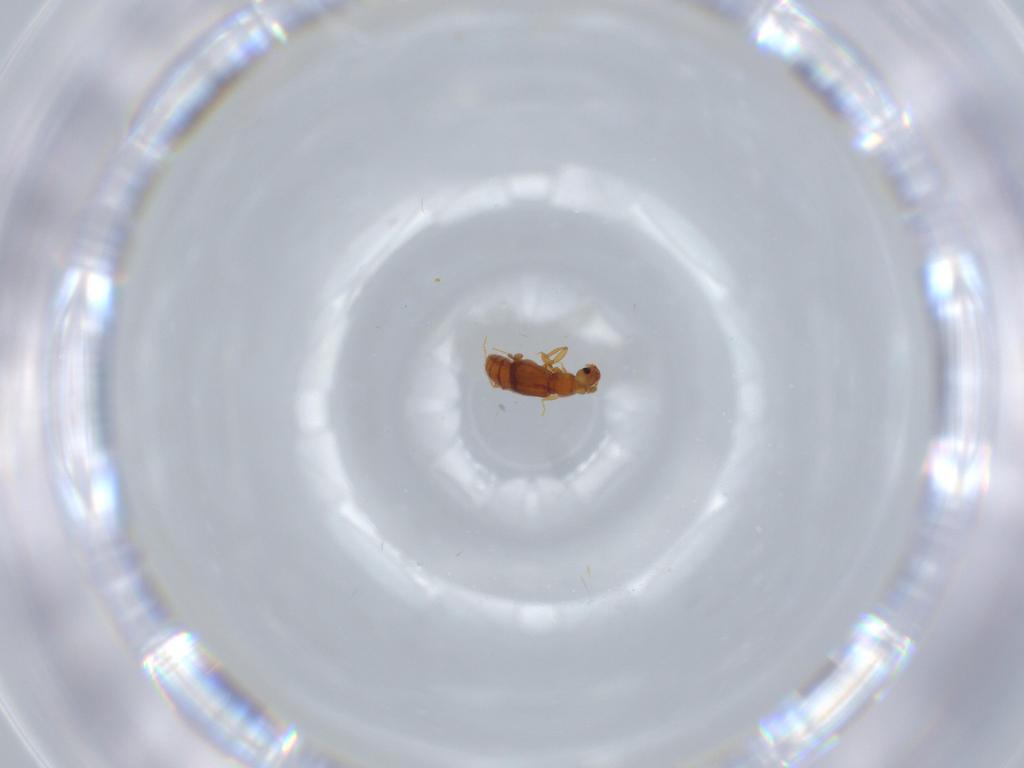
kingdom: Animalia
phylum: Arthropoda
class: Insecta
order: Coleoptera
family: Staphylinidae
